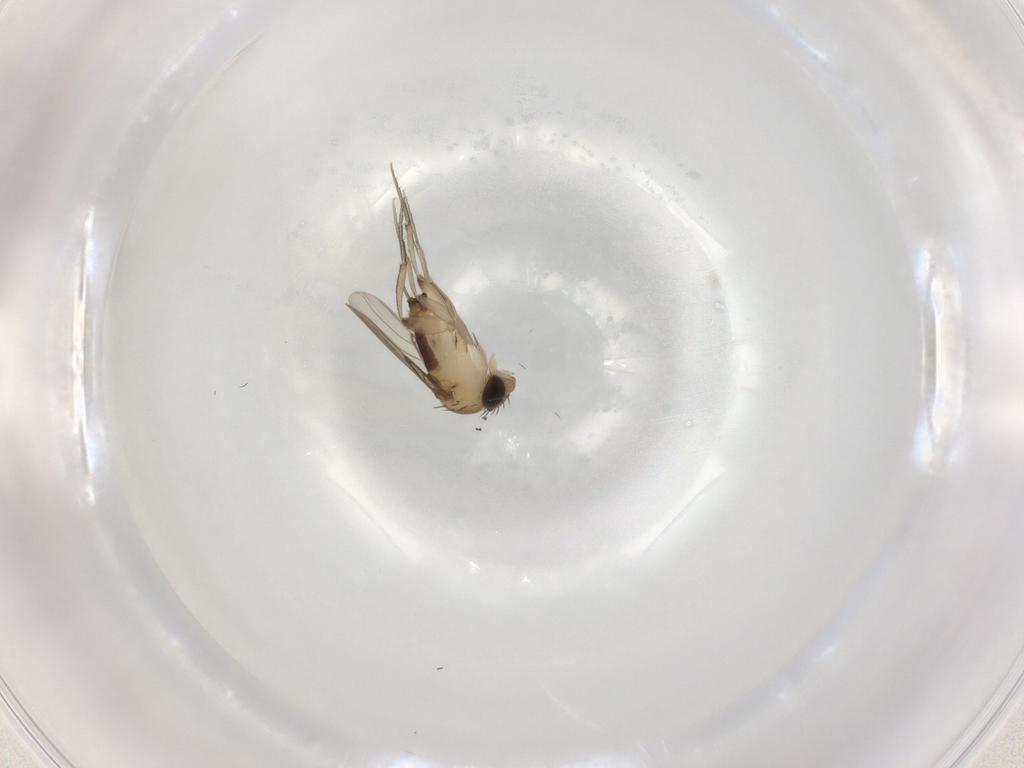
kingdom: Animalia
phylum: Arthropoda
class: Insecta
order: Diptera
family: Phoridae
